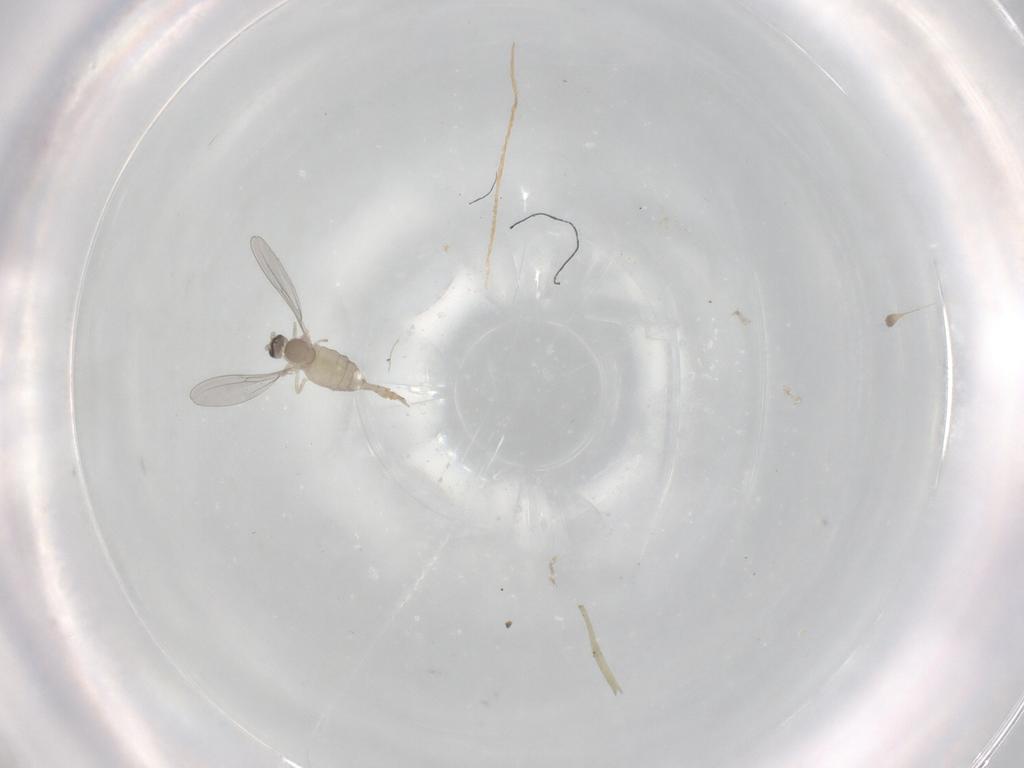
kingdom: Animalia
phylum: Arthropoda
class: Insecta
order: Diptera
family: Cecidomyiidae
